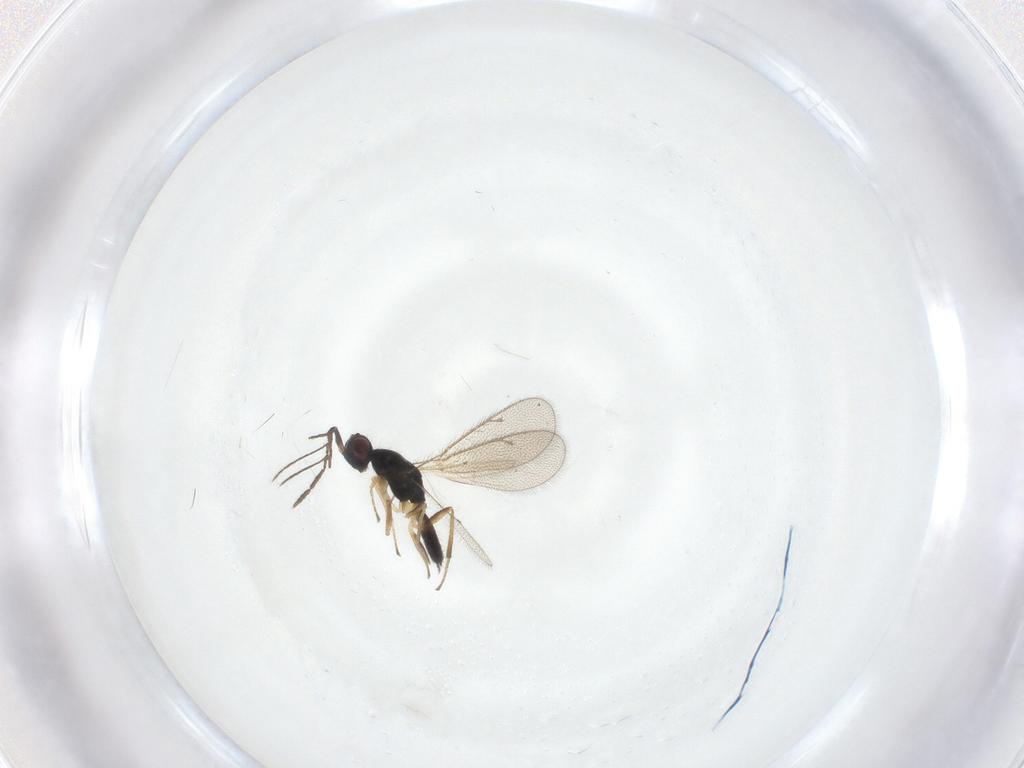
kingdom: Animalia
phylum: Arthropoda
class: Insecta
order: Hymenoptera
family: Eulophidae
